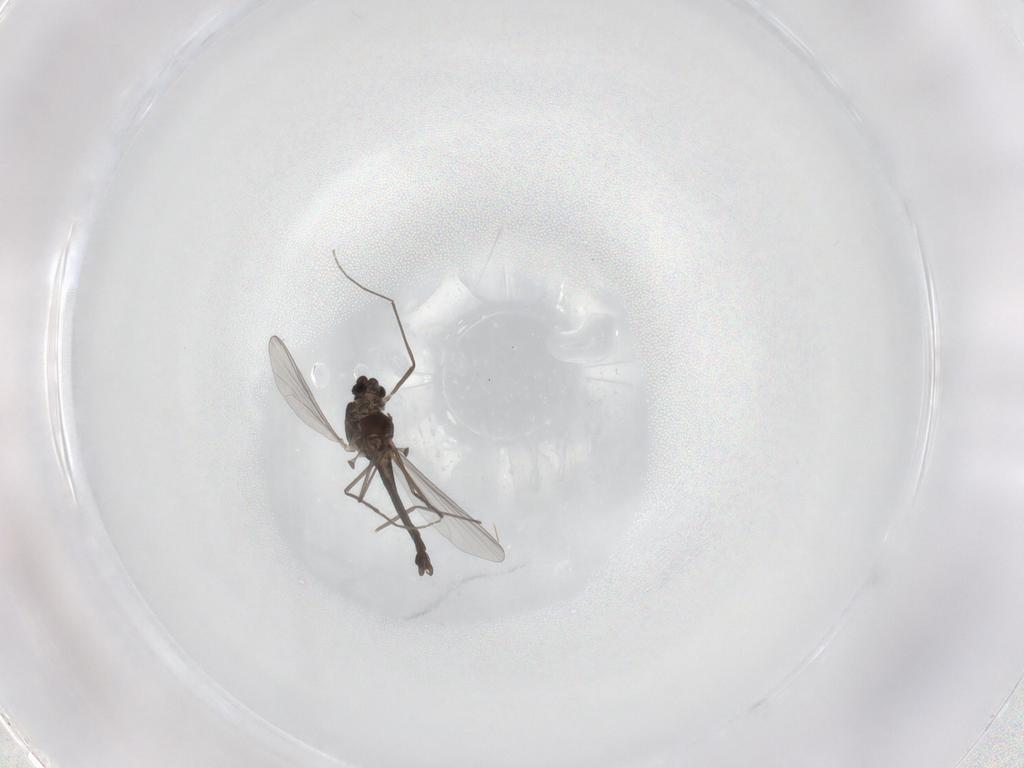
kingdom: Animalia
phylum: Arthropoda
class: Insecta
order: Diptera
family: Chironomidae
